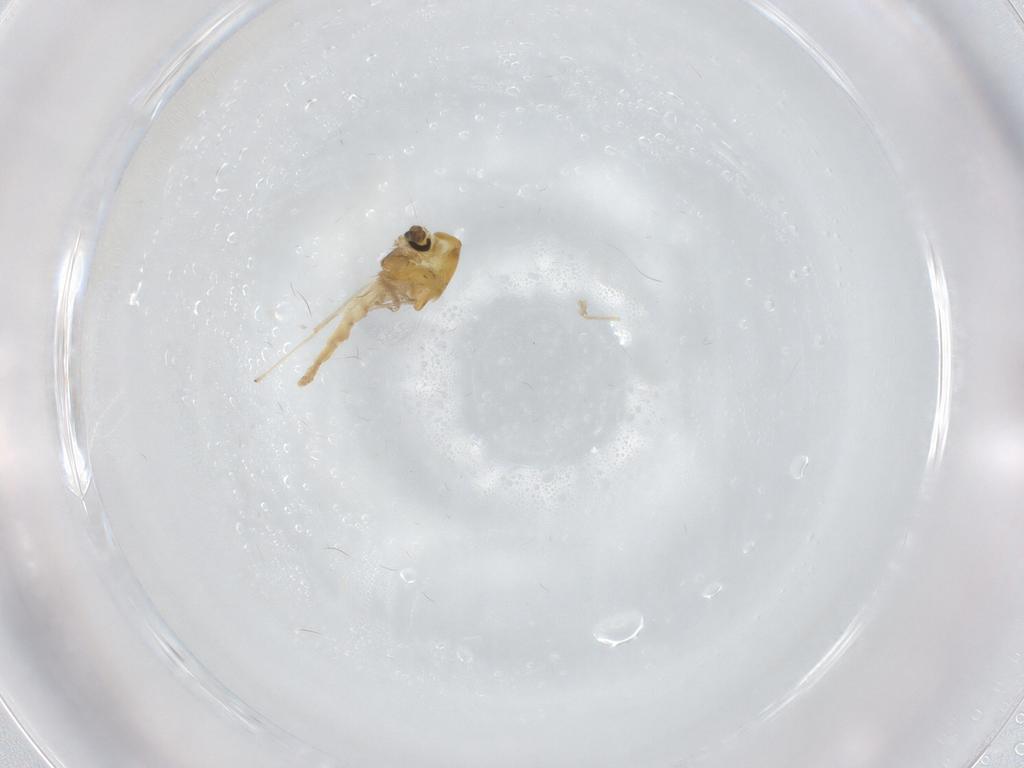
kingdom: Animalia
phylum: Arthropoda
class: Insecta
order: Diptera
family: Chironomidae
